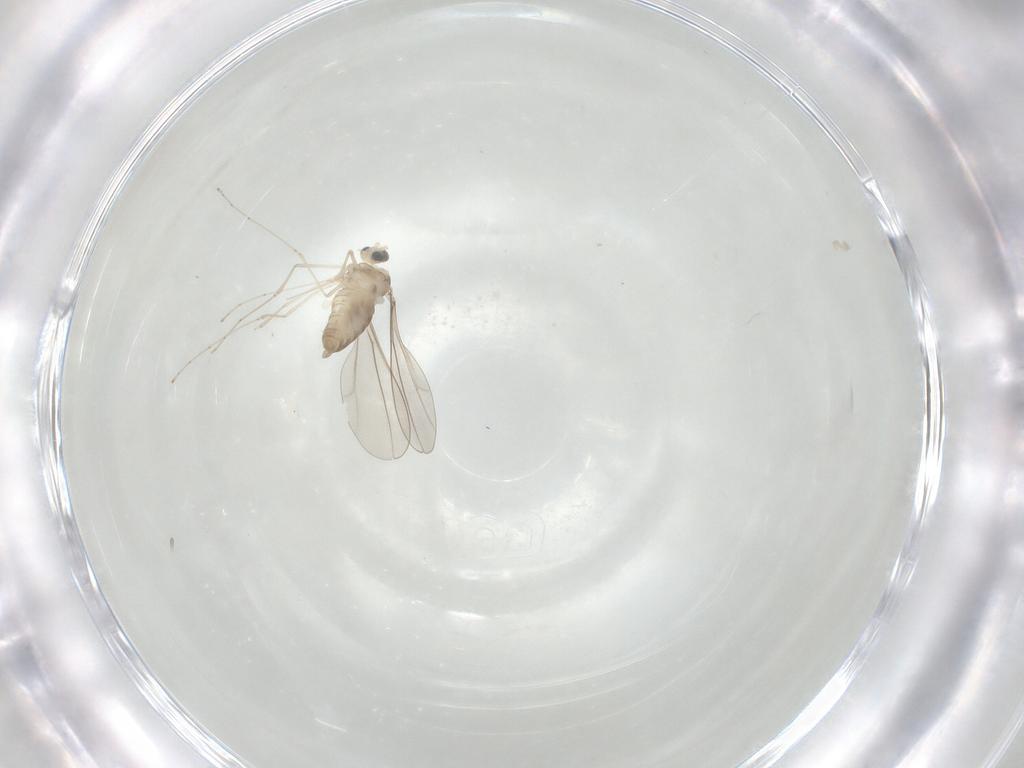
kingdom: Animalia
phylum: Arthropoda
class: Insecta
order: Diptera
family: Cecidomyiidae
